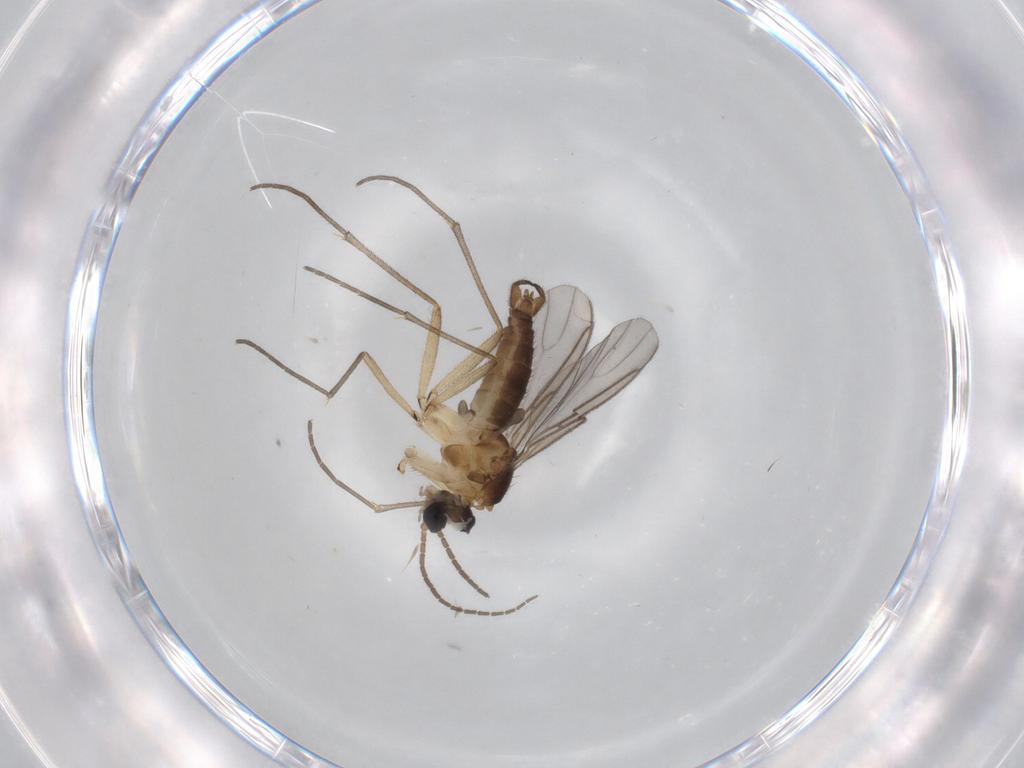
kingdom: Animalia
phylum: Arthropoda
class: Insecta
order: Diptera
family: Sciaridae
